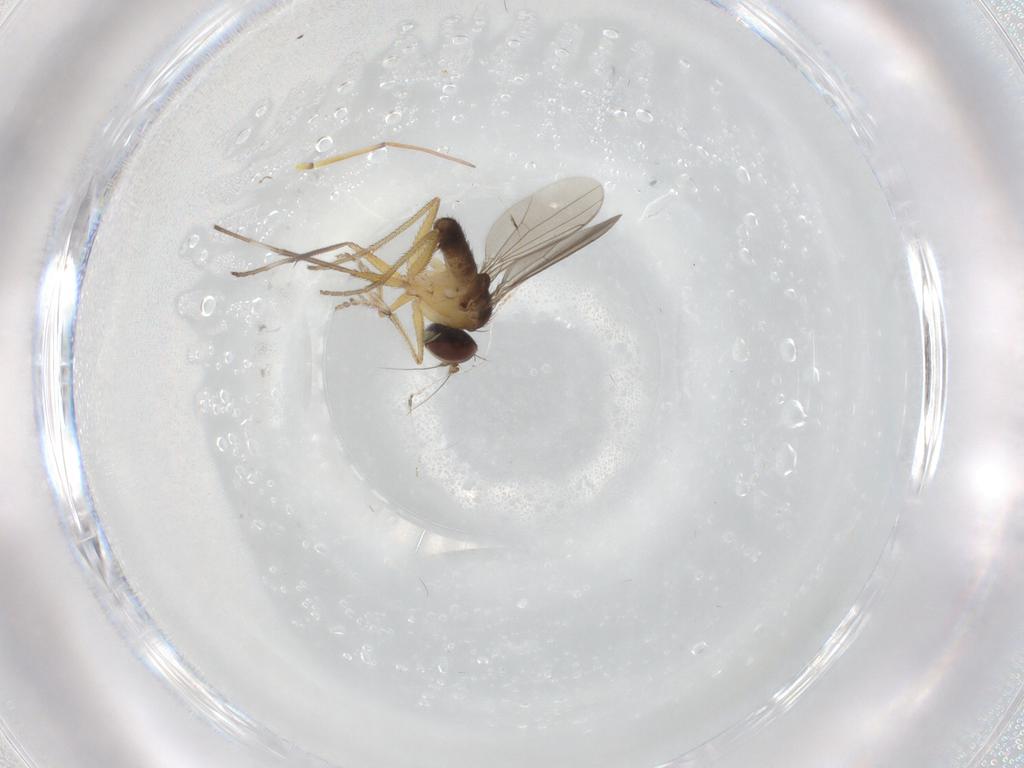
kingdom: Animalia
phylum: Arthropoda
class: Insecta
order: Diptera
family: Dolichopodidae
